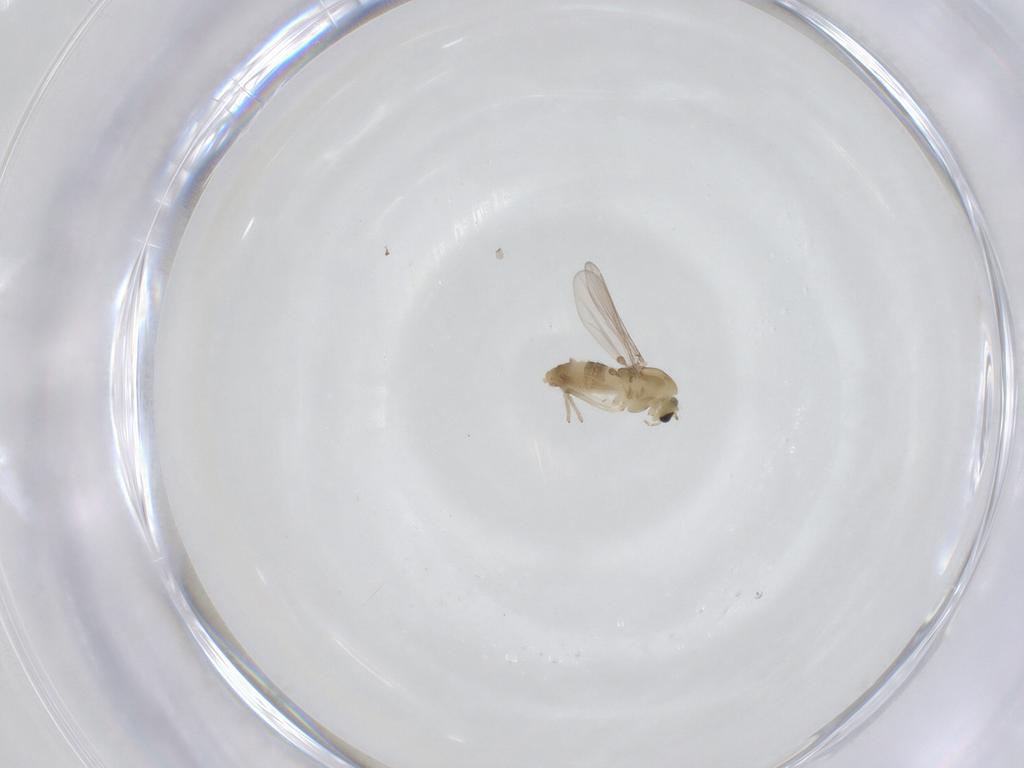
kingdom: Animalia
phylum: Arthropoda
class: Insecta
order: Diptera
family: Chironomidae
